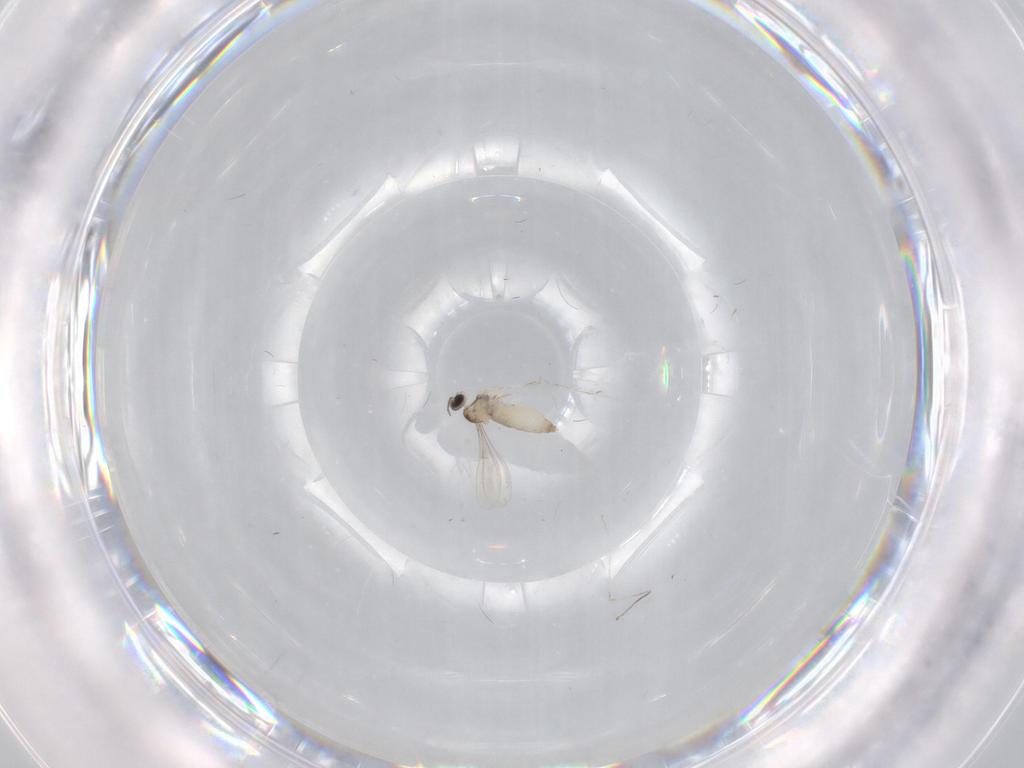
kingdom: Animalia
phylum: Arthropoda
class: Insecta
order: Diptera
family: Cecidomyiidae
